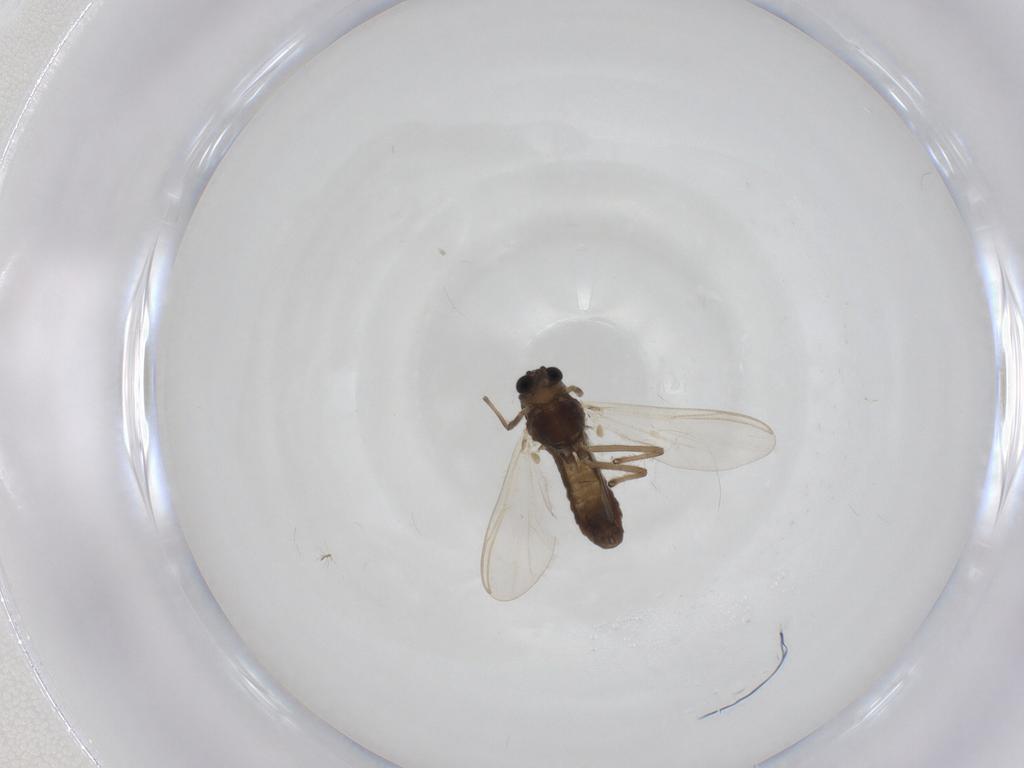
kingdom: Animalia
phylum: Arthropoda
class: Insecta
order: Diptera
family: Chironomidae
